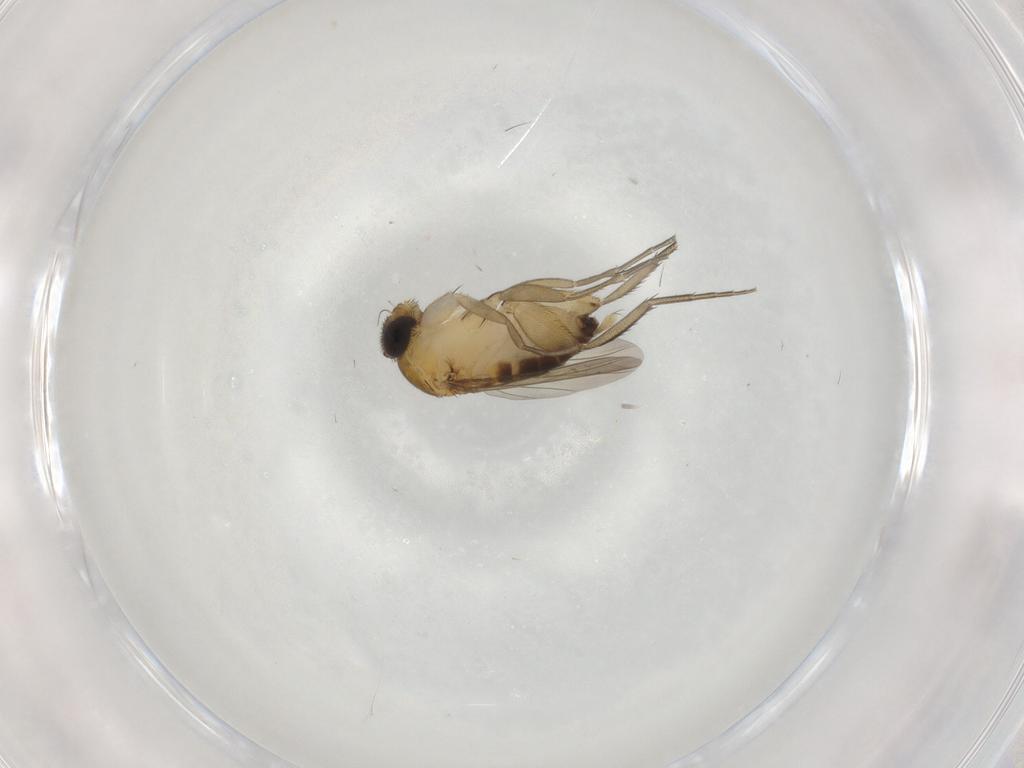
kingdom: Animalia
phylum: Arthropoda
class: Insecta
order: Diptera
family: Phoridae
